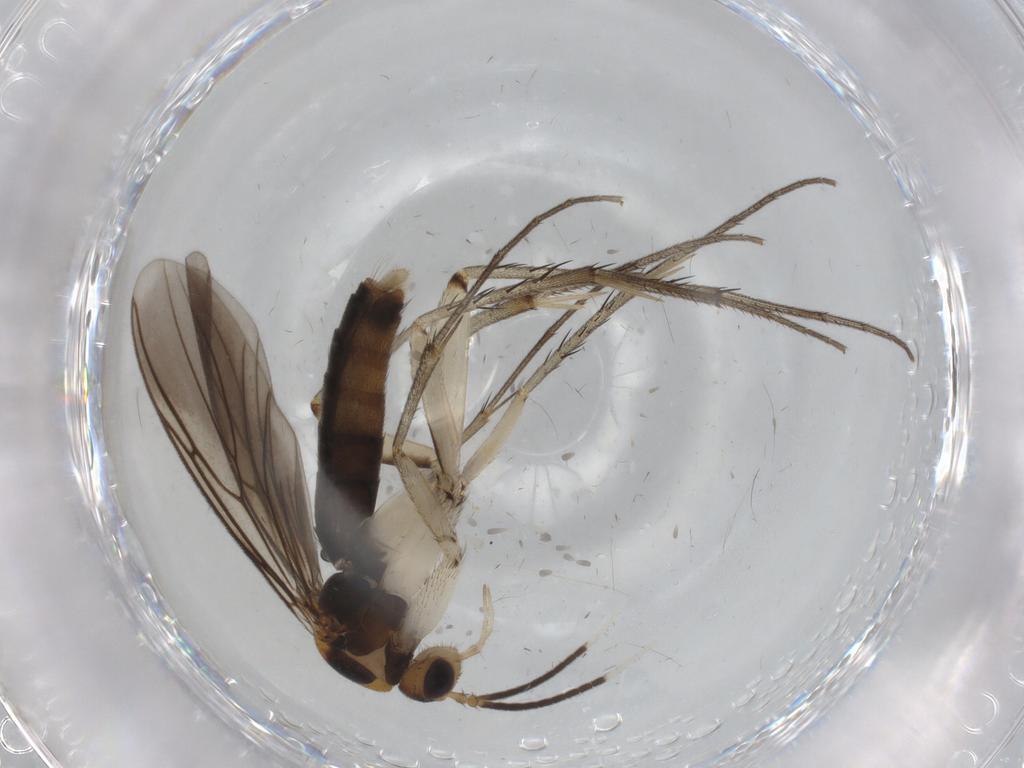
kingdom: Animalia
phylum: Arthropoda
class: Insecta
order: Diptera
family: Mycetophilidae
